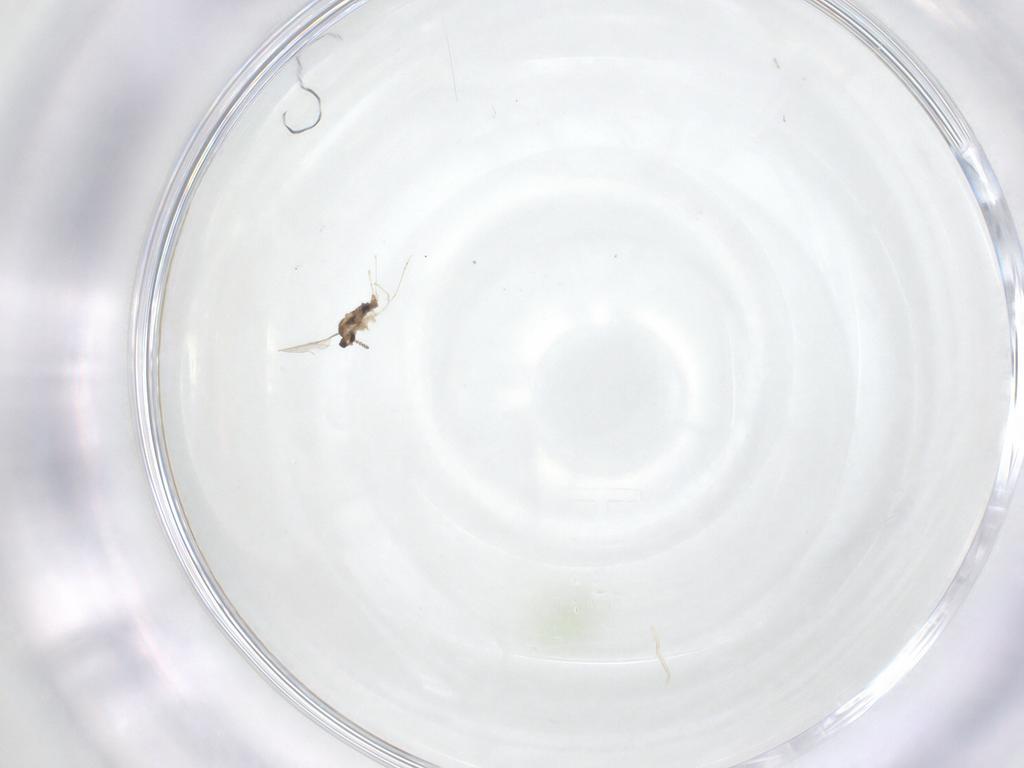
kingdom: Animalia
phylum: Arthropoda
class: Insecta
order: Diptera
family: Cecidomyiidae
